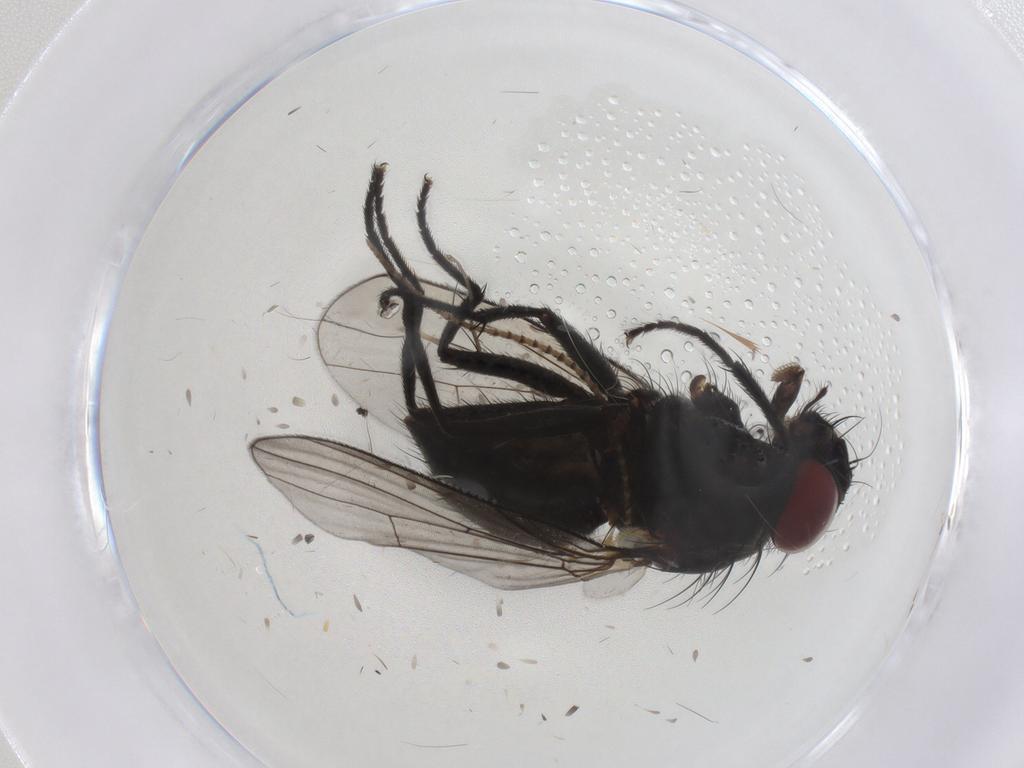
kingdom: Animalia
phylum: Arthropoda
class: Insecta
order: Diptera
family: Muscidae
